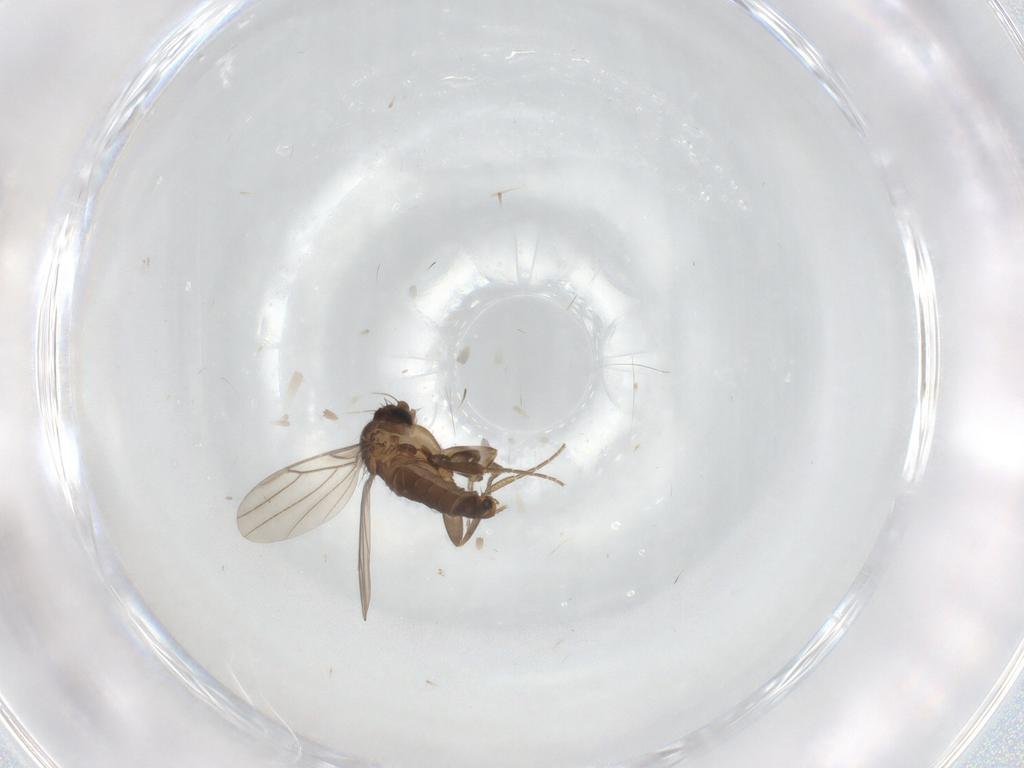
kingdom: Animalia
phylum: Arthropoda
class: Insecta
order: Diptera
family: Phoridae
